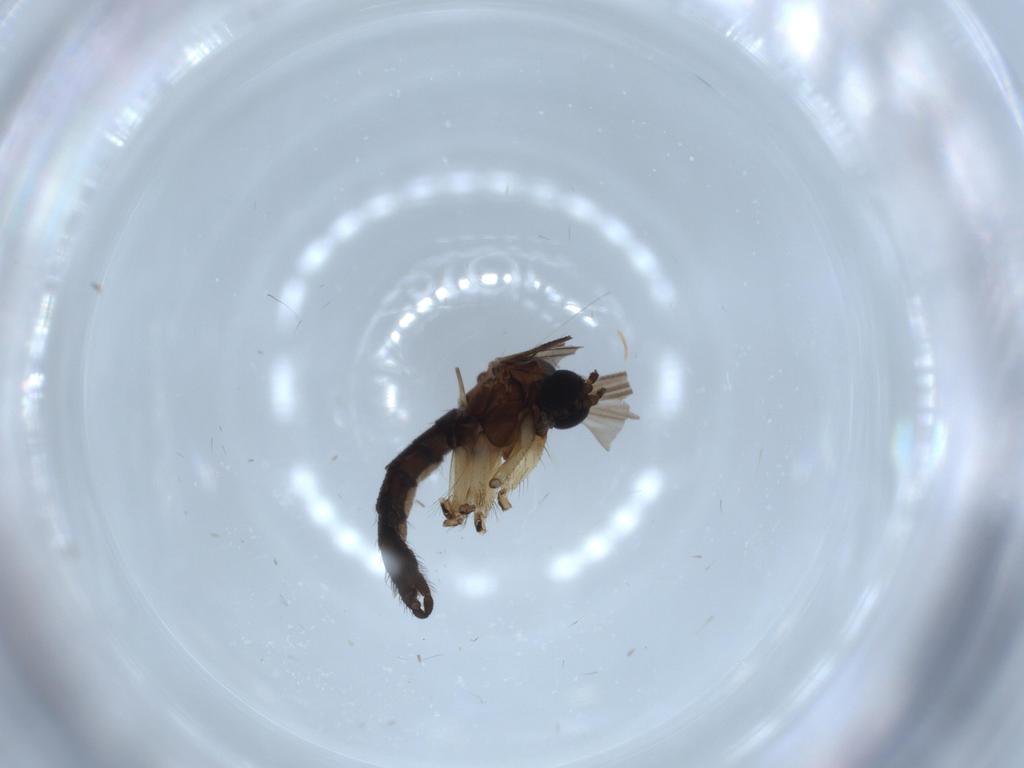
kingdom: Animalia
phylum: Arthropoda
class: Insecta
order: Diptera
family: Sciaridae
